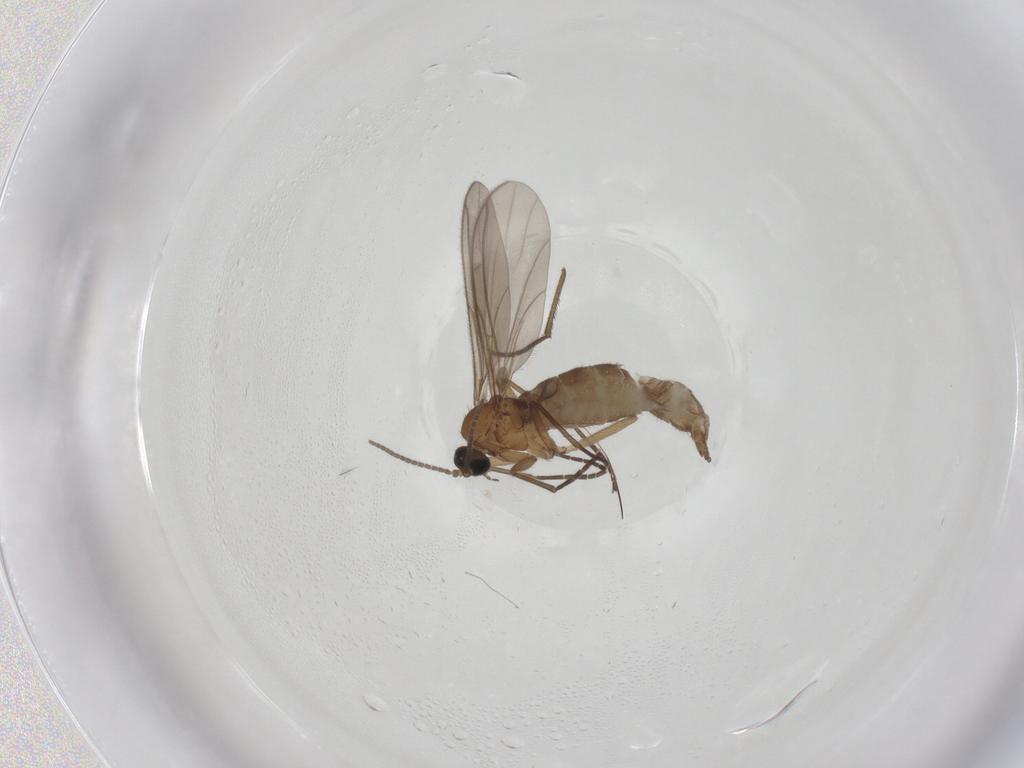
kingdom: Animalia
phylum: Arthropoda
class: Insecta
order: Diptera
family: Sciaridae
